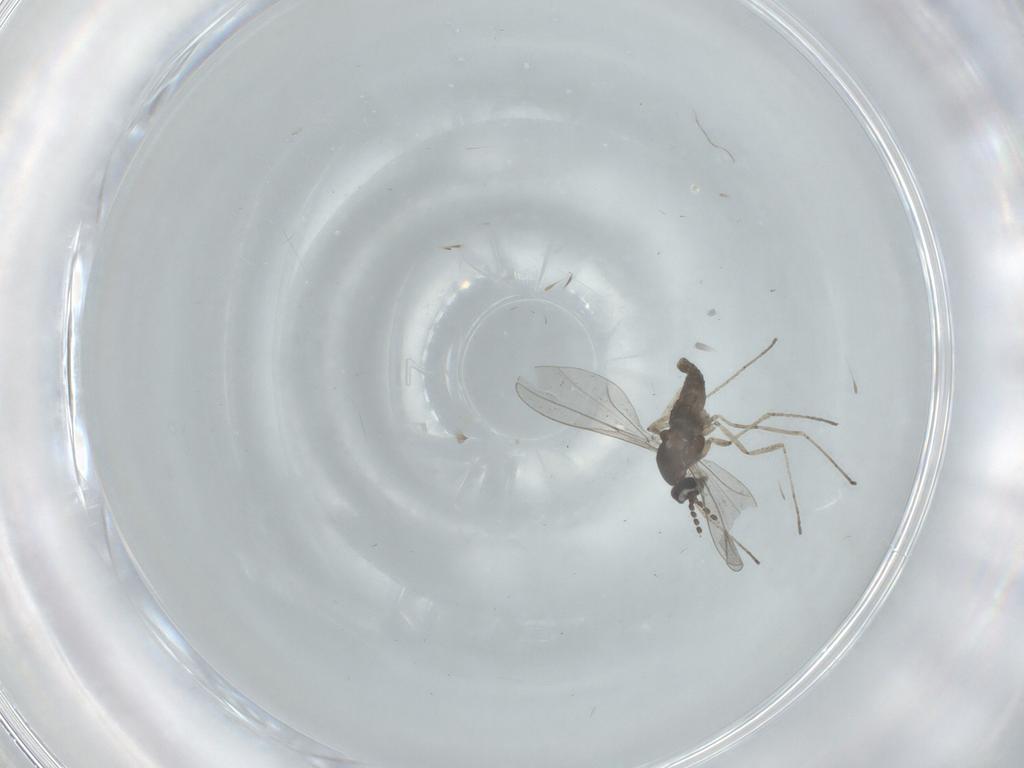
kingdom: Animalia
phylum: Arthropoda
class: Insecta
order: Diptera
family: Cecidomyiidae
